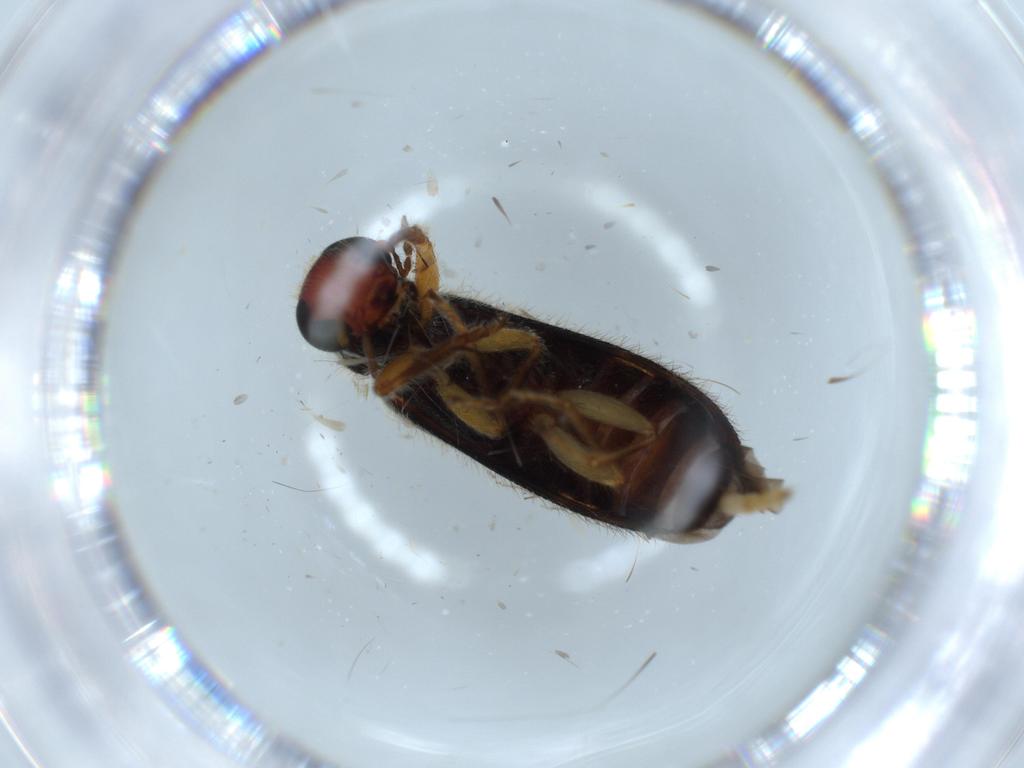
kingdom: Animalia
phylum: Arthropoda
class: Insecta
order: Coleoptera
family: Cleridae
